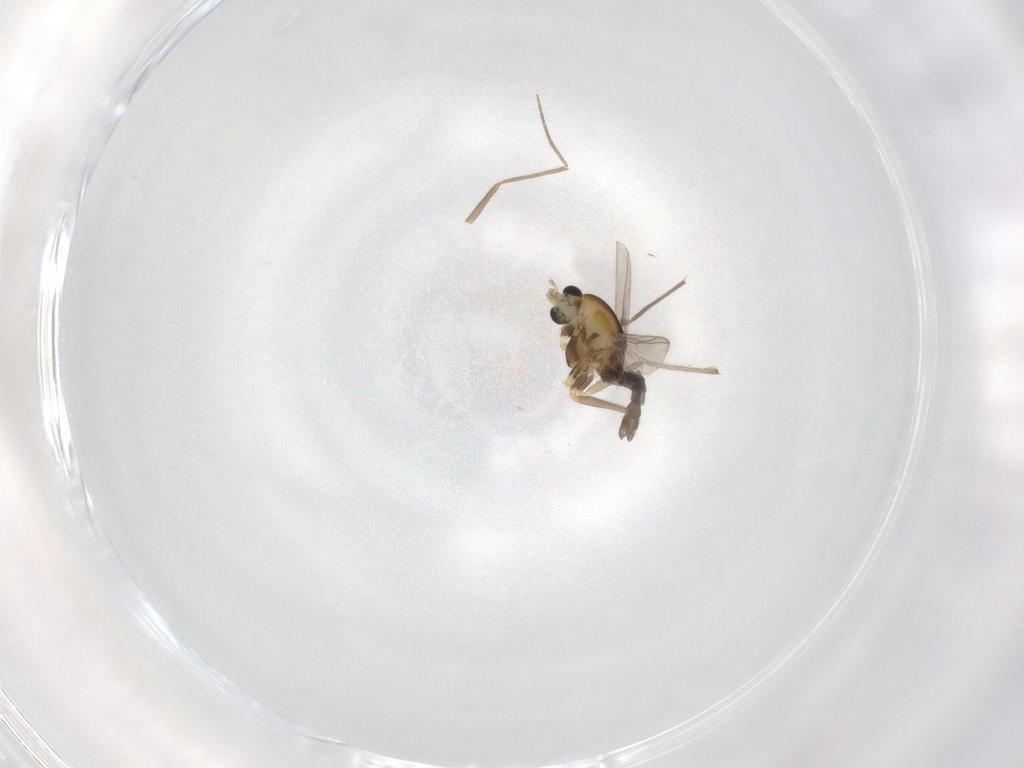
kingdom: Animalia
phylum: Arthropoda
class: Insecta
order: Diptera
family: Chironomidae
